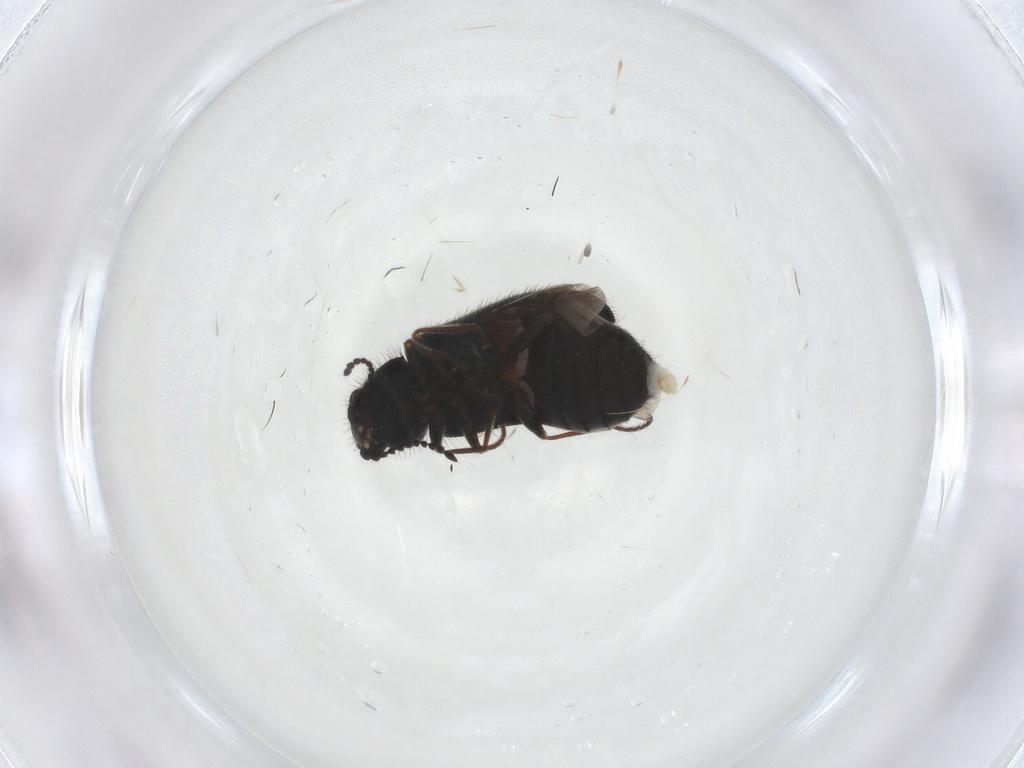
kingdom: Animalia
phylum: Arthropoda
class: Insecta
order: Coleoptera
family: Melyridae
